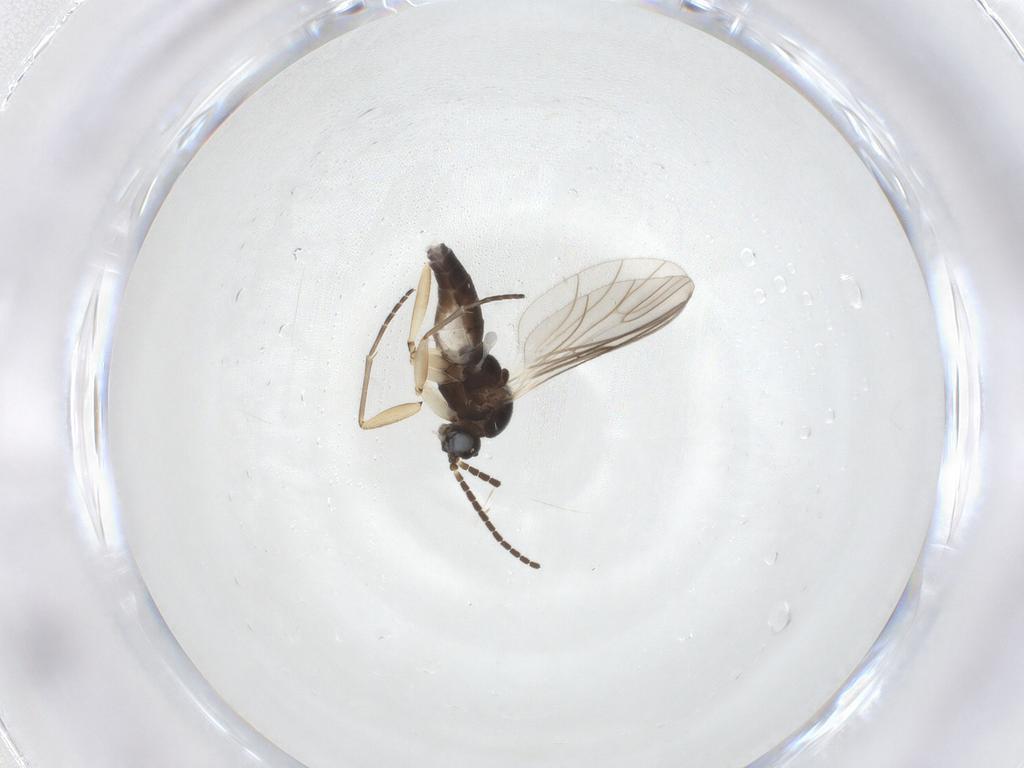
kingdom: Animalia
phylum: Arthropoda
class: Insecta
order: Diptera
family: Sciaridae
